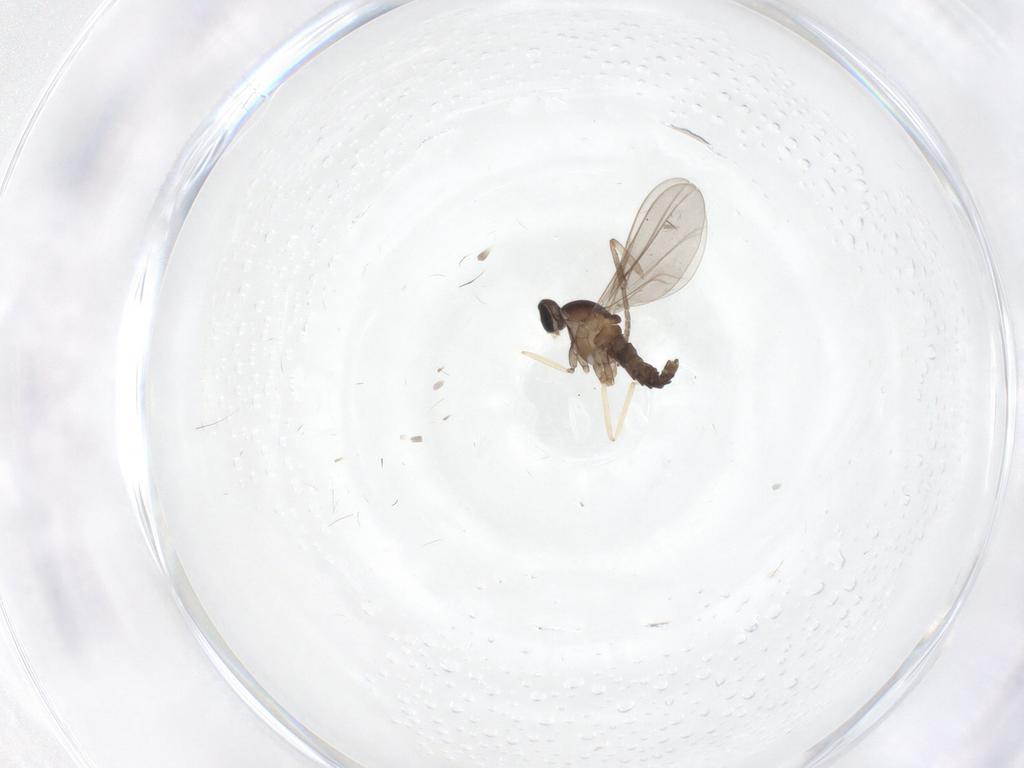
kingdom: Animalia
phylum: Arthropoda
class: Insecta
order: Diptera
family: Cecidomyiidae
